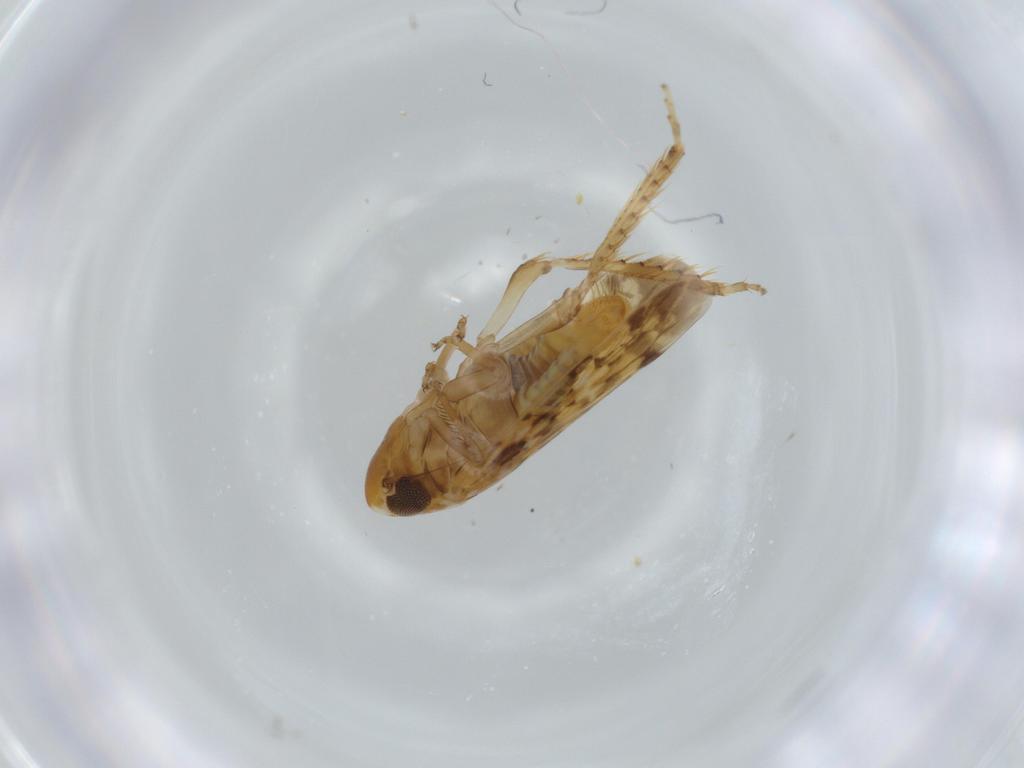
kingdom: Animalia
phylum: Arthropoda
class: Insecta
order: Hemiptera
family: Cicadellidae
